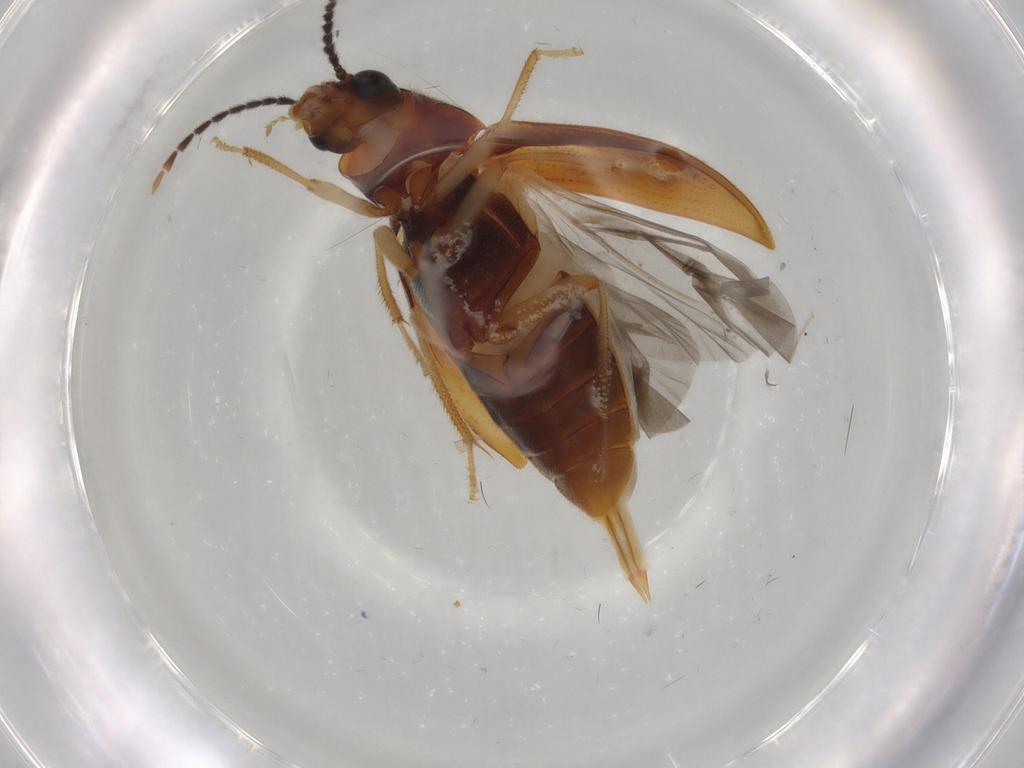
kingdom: Animalia
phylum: Arthropoda
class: Insecta
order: Coleoptera
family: Ptilodactylidae
